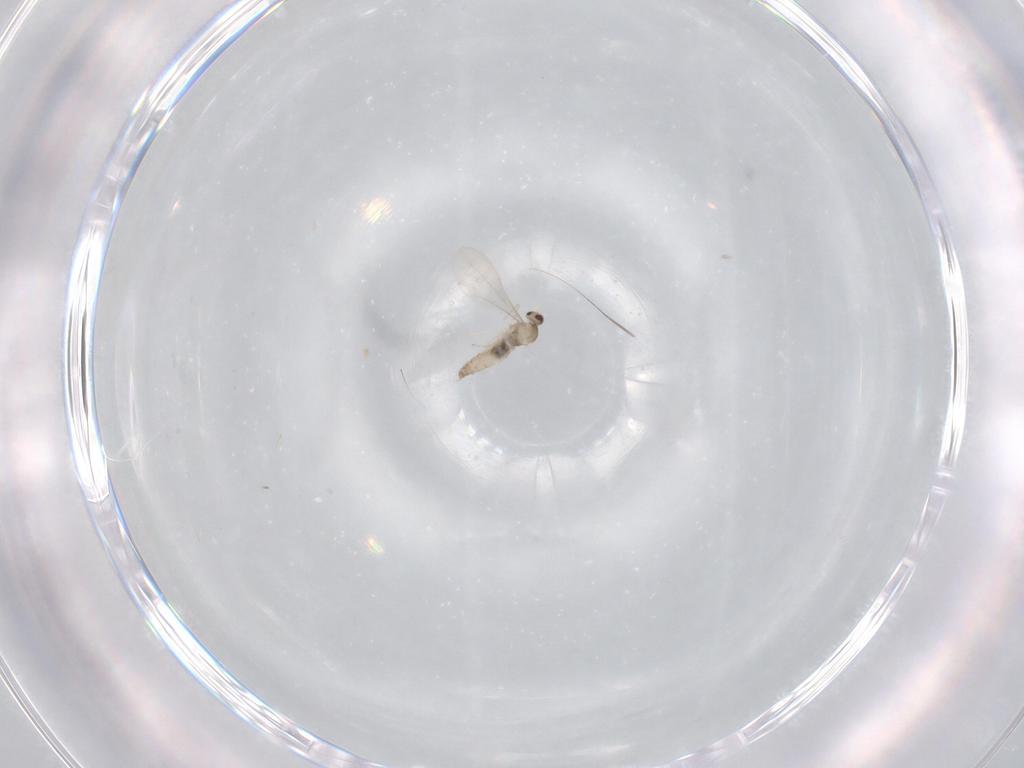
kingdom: Animalia
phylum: Arthropoda
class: Insecta
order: Diptera
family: Cecidomyiidae
